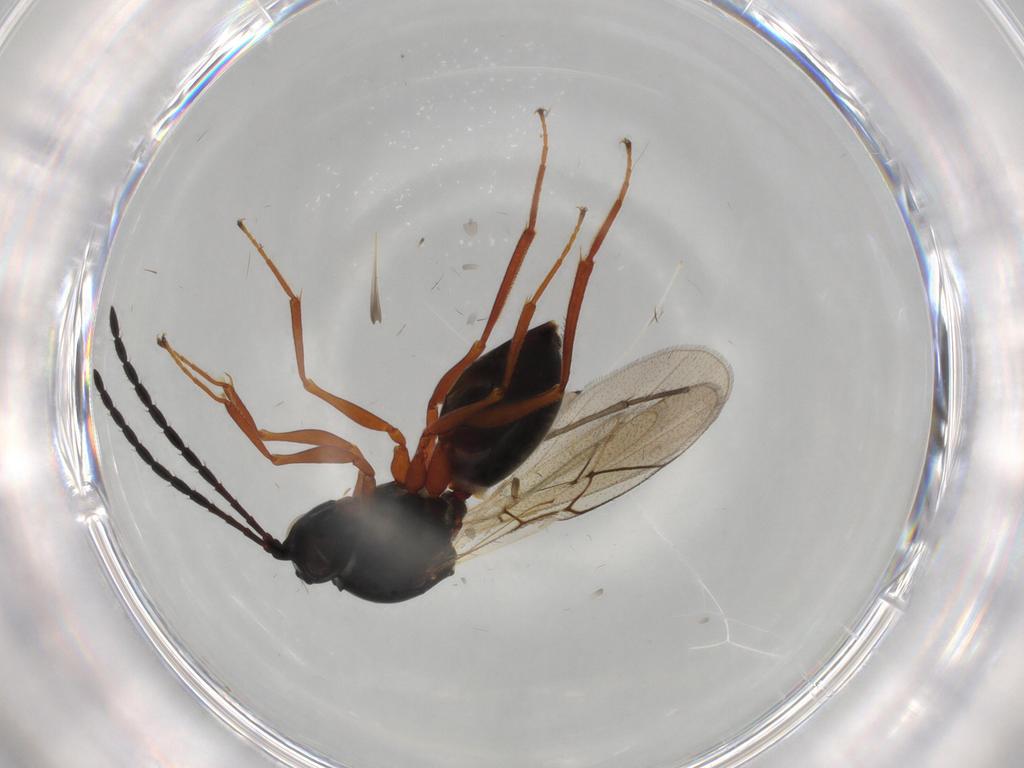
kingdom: Animalia
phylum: Arthropoda
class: Insecta
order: Hymenoptera
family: Figitidae
